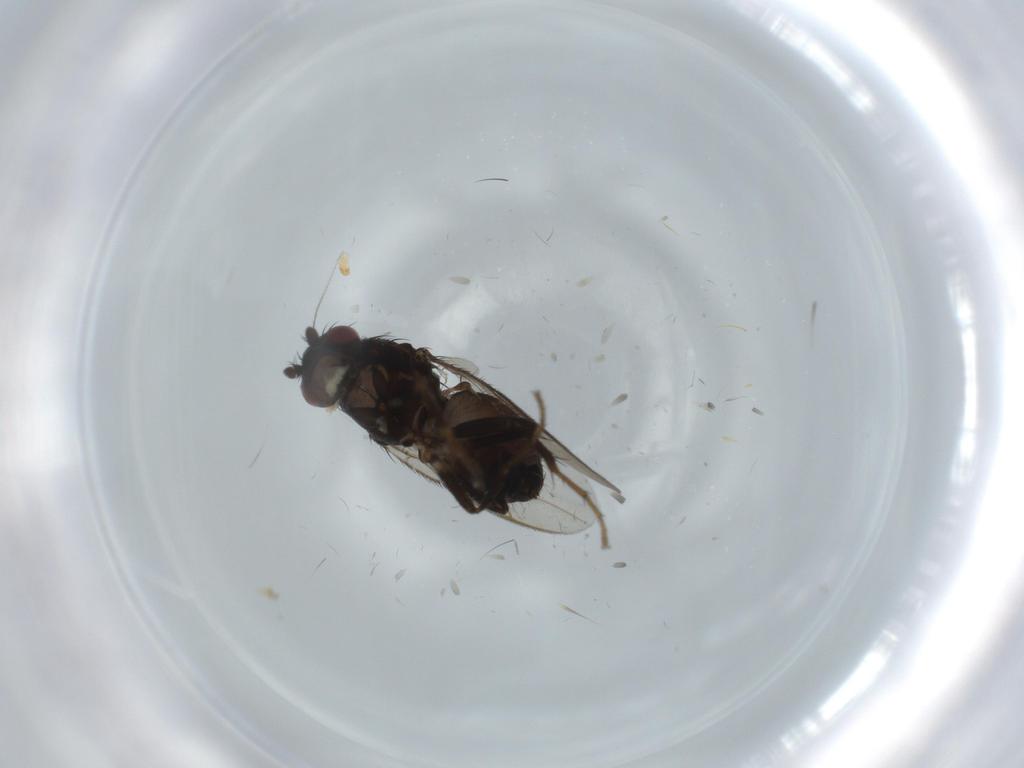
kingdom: Animalia
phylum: Arthropoda
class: Insecta
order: Diptera
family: Sphaeroceridae
